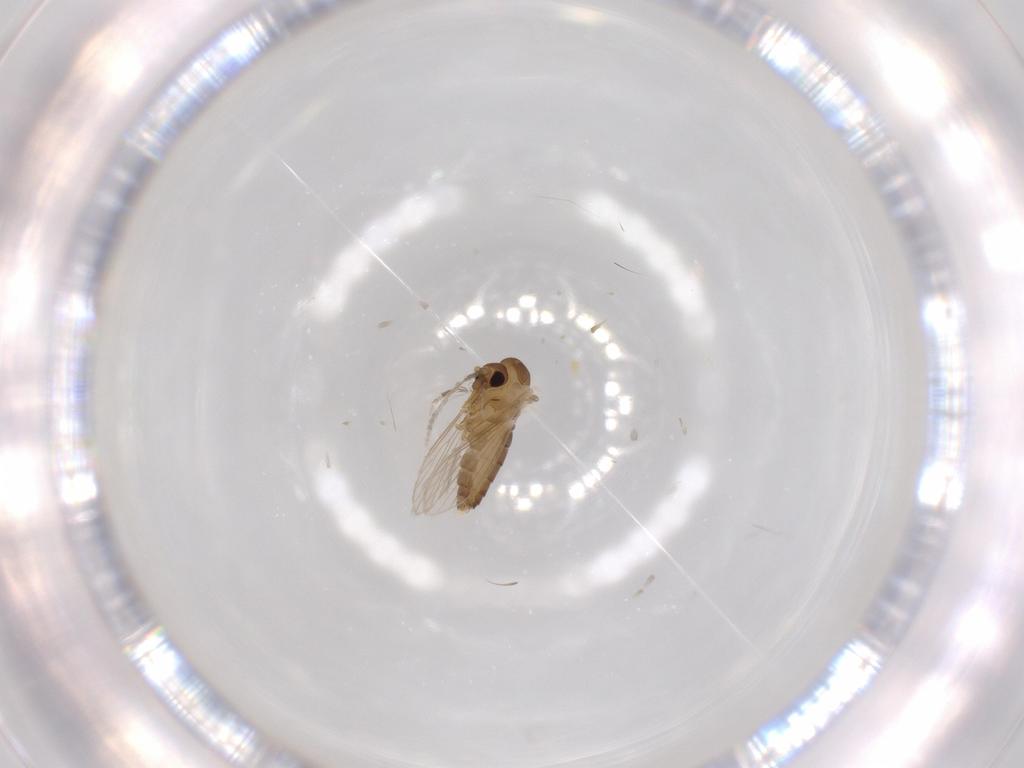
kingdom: Animalia
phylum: Arthropoda
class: Insecta
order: Diptera
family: Psychodidae
